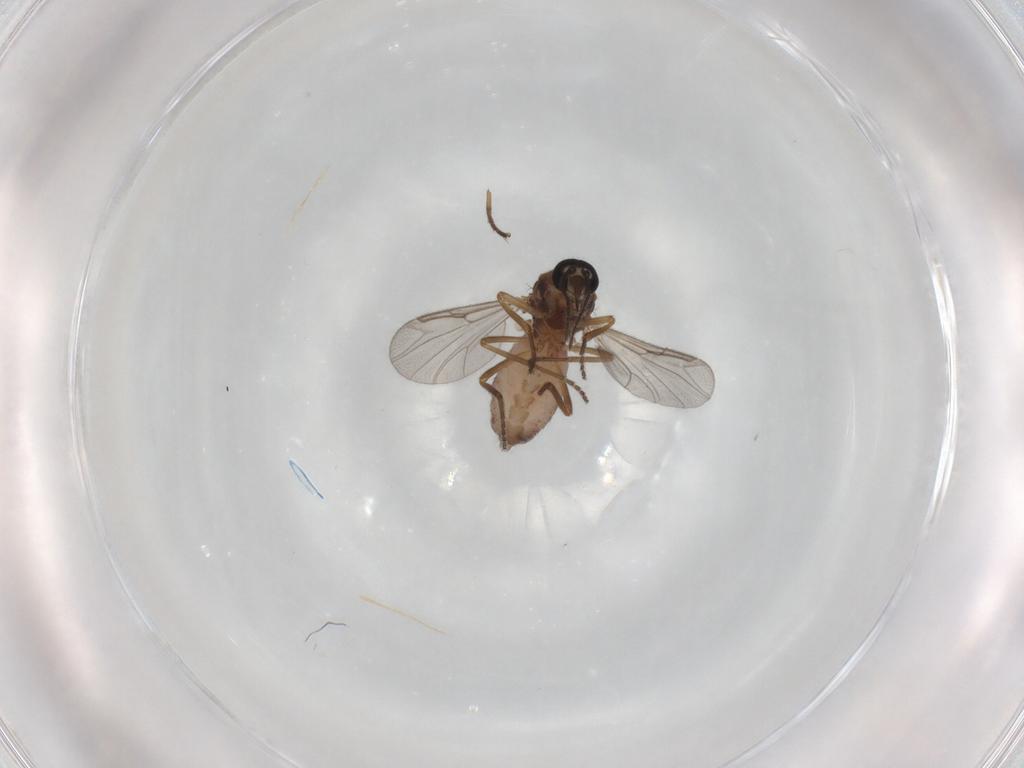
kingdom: Animalia
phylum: Arthropoda
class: Insecta
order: Diptera
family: Ceratopogonidae
